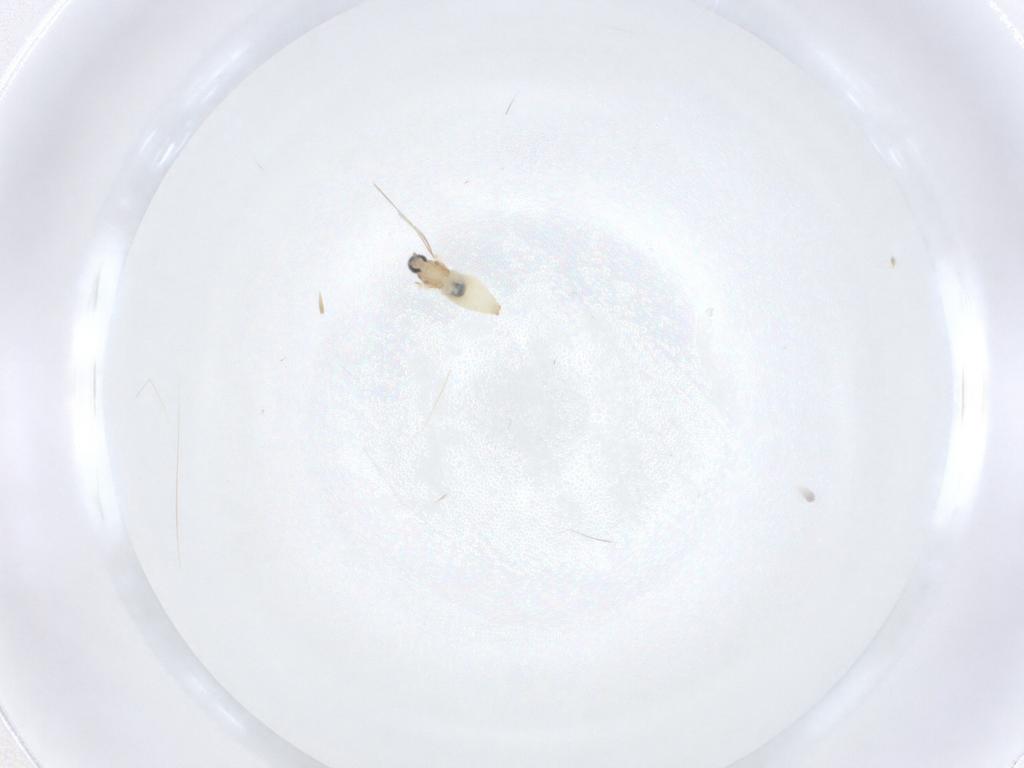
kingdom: Animalia
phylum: Arthropoda
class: Insecta
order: Diptera
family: Cecidomyiidae
